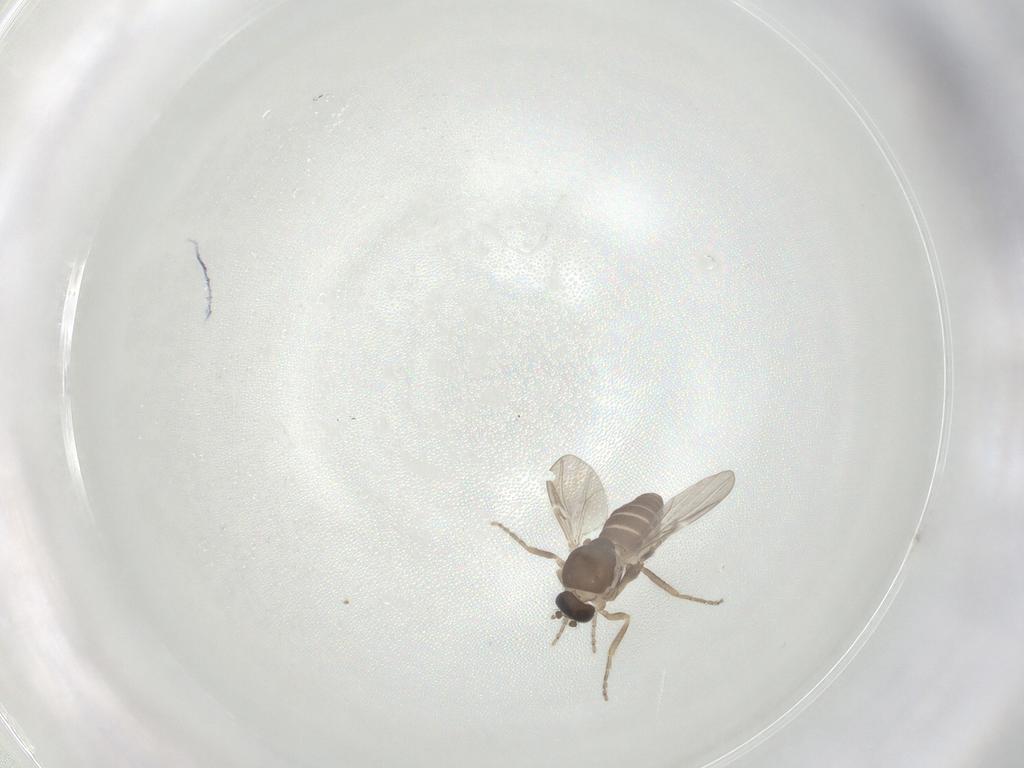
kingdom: Animalia
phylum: Arthropoda
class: Insecta
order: Diptera
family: Ceratopogonidae
